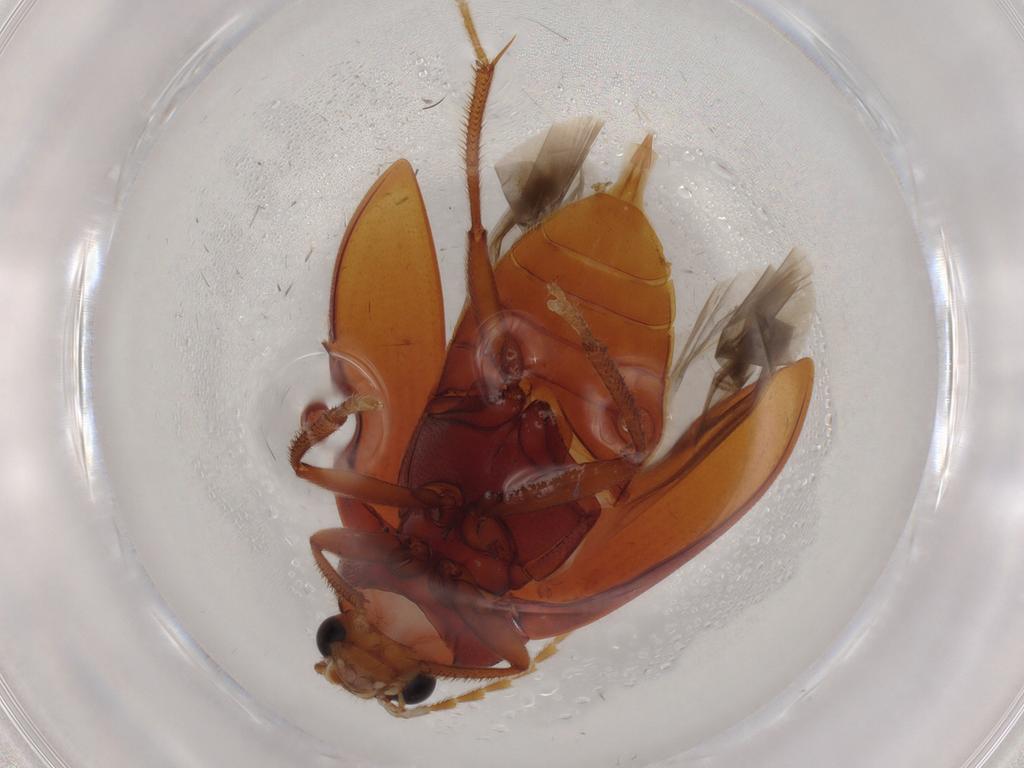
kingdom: Animalia
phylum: Arthropoda
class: Insecta
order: Coleoptera
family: Ptilodactylidae
